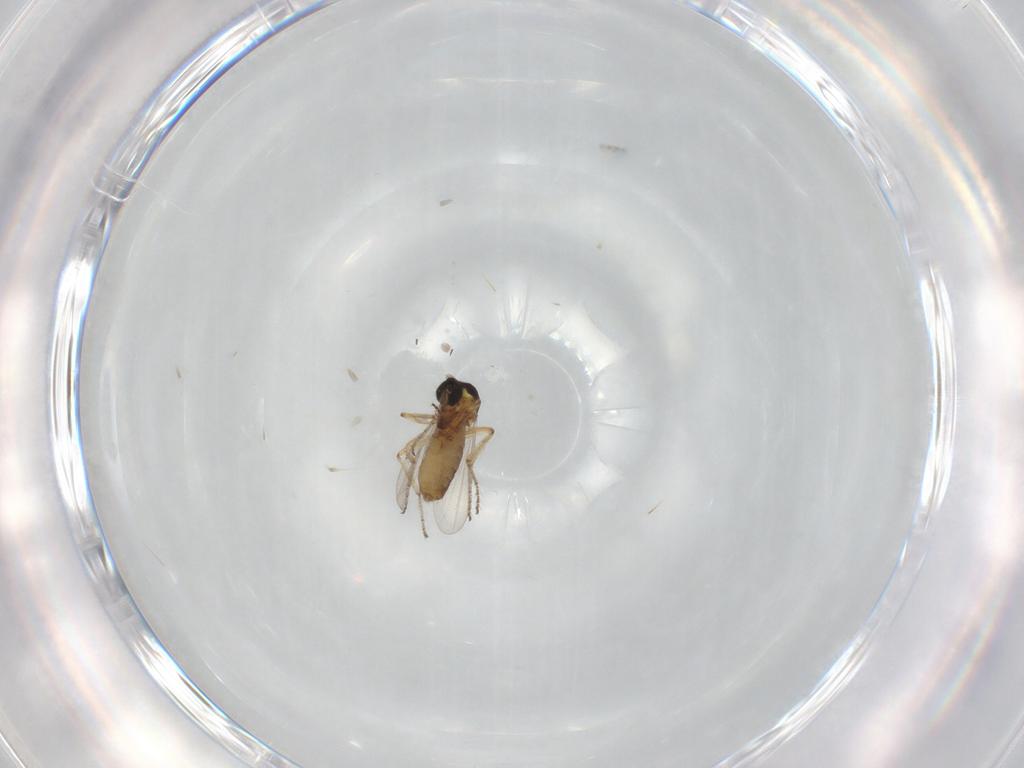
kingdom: Animalia
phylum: Arthropoda
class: Insecta
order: Diptera
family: Ceratopogonidae
